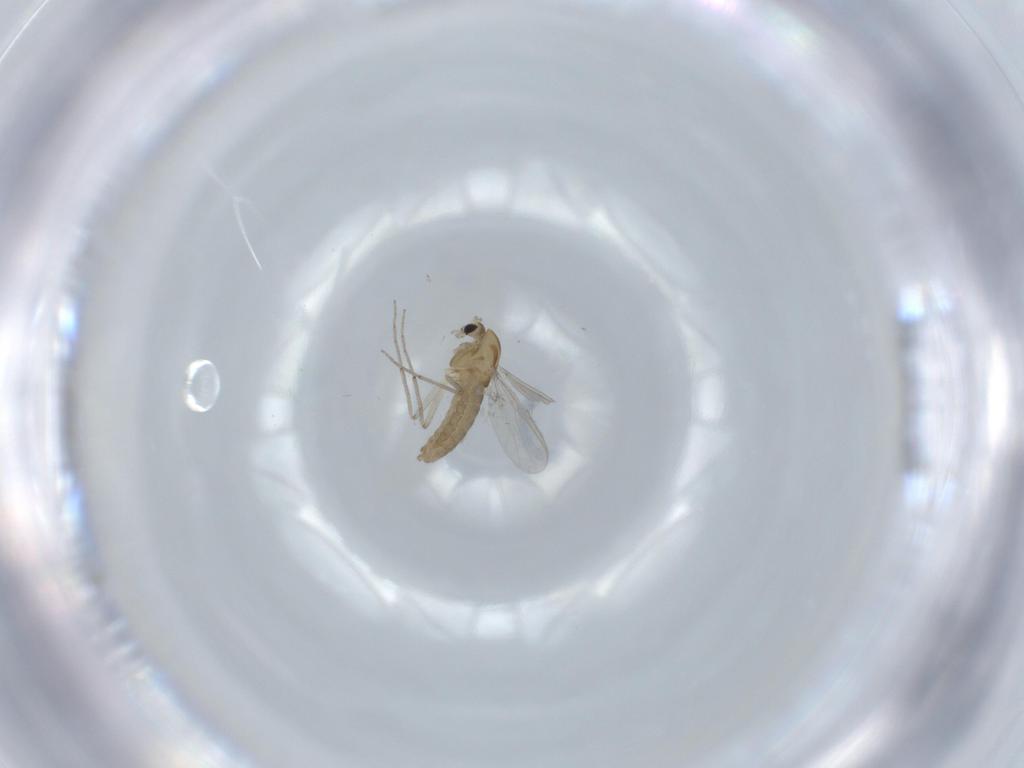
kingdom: Animalia
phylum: Arthropoda
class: Insecta
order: Diptera
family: Chironomidae
